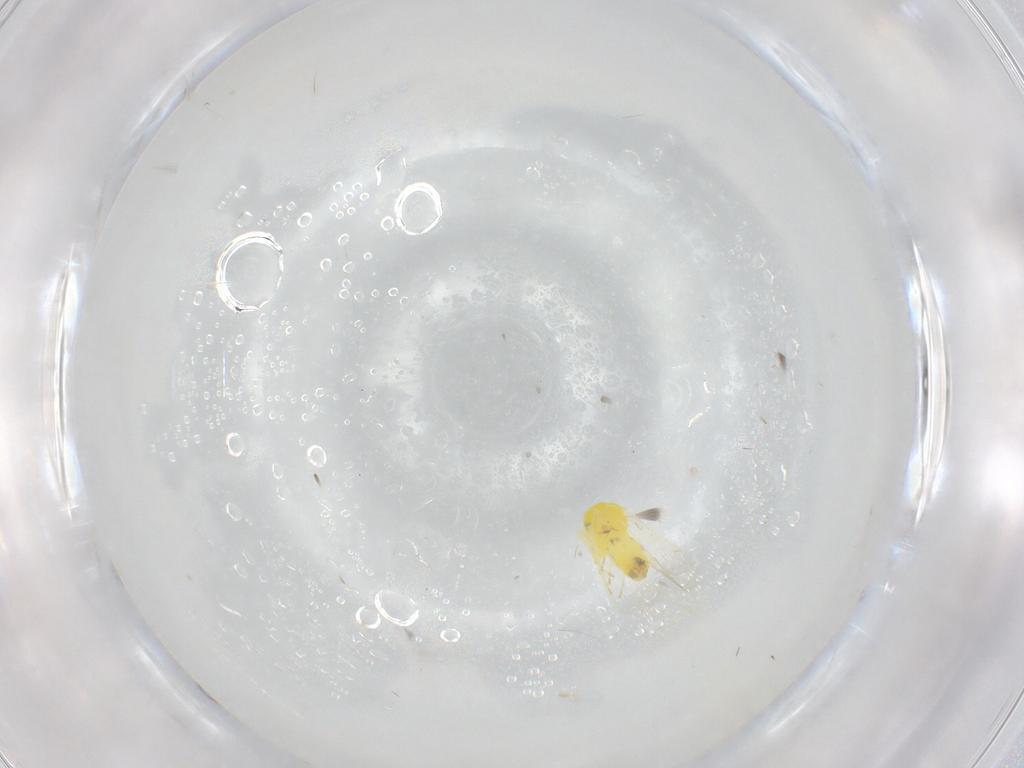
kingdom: Animalia
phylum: Arthropoda
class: Insecta
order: Hemiptera
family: Aleyrodidae
